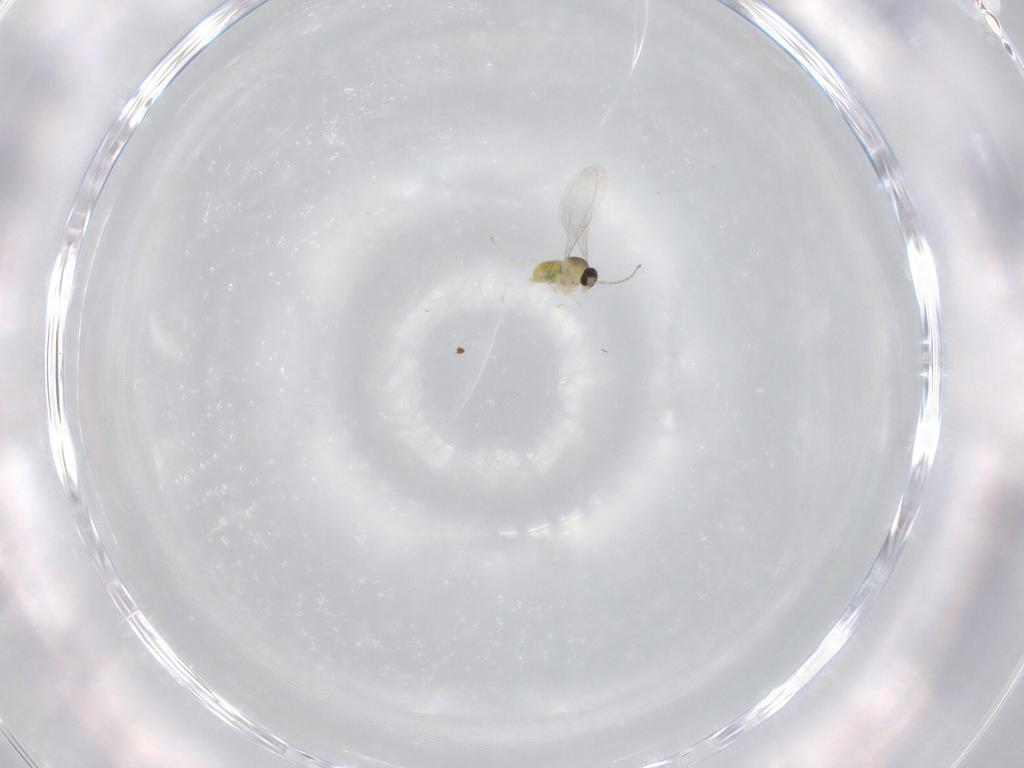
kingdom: Animalia
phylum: Arthropoda
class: Insecta
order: Diptera
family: Cecidomyiidae
